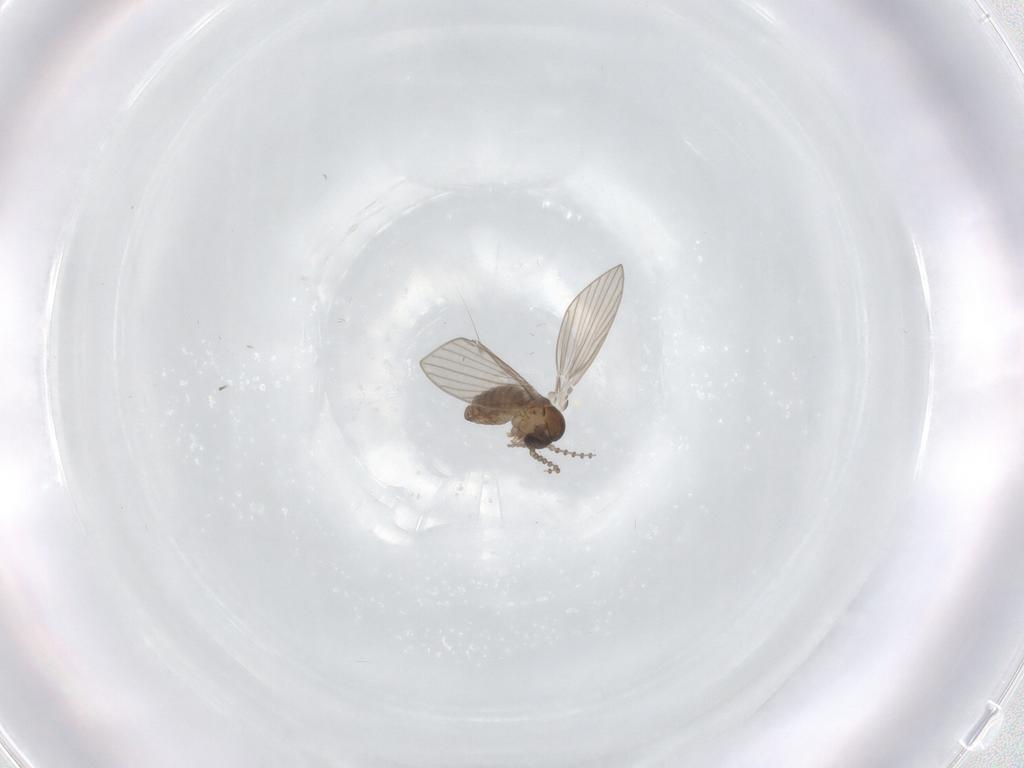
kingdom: Animalia
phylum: Arthropoda
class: Insecta
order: Diptera
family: Psychodidae
